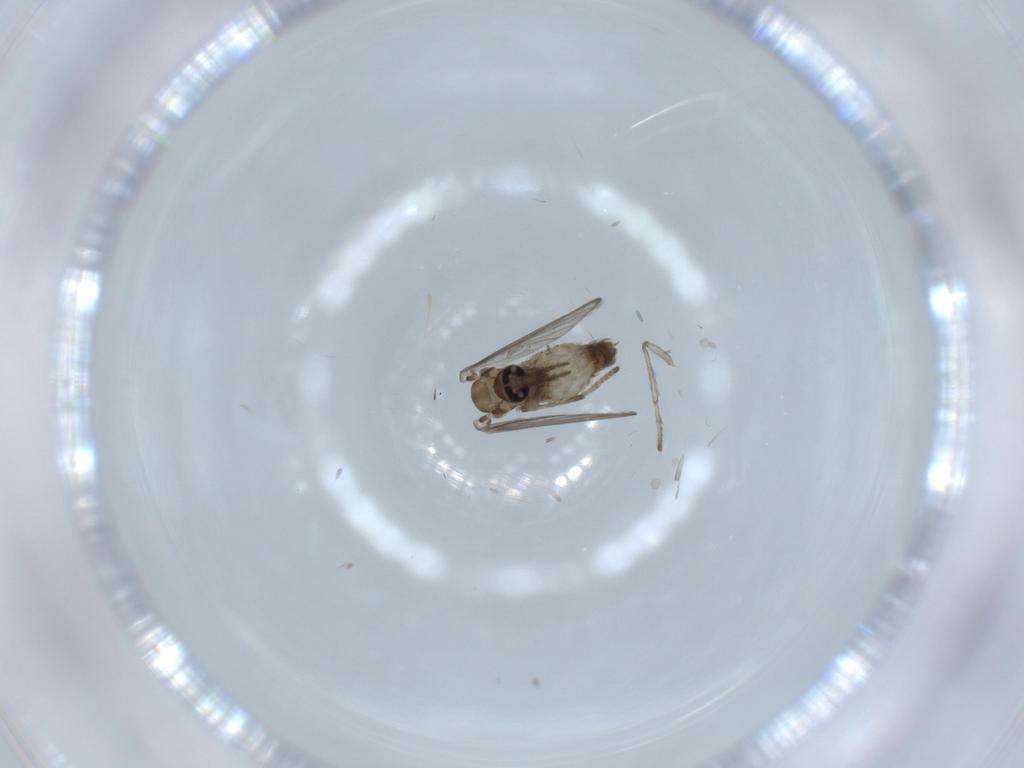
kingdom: Animalia
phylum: Arthropoda
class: Insecta
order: Diptera
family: Psychodidae
